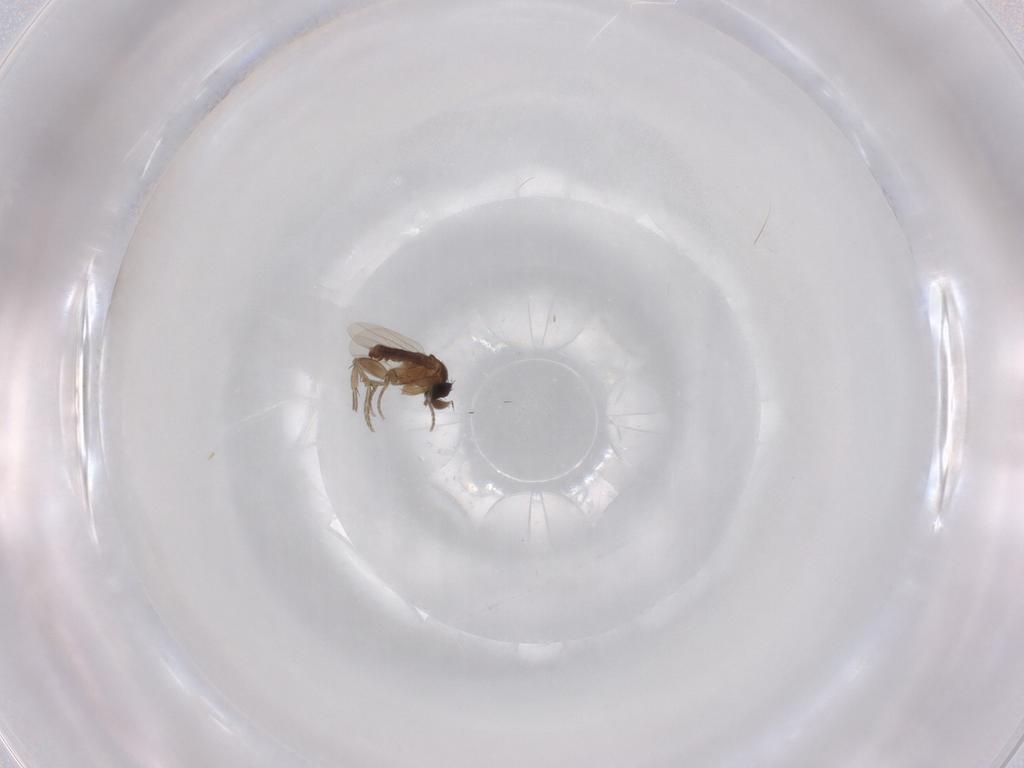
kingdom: Animalia
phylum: Arthropoda
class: Insecta
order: Diptera
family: Phoridae
